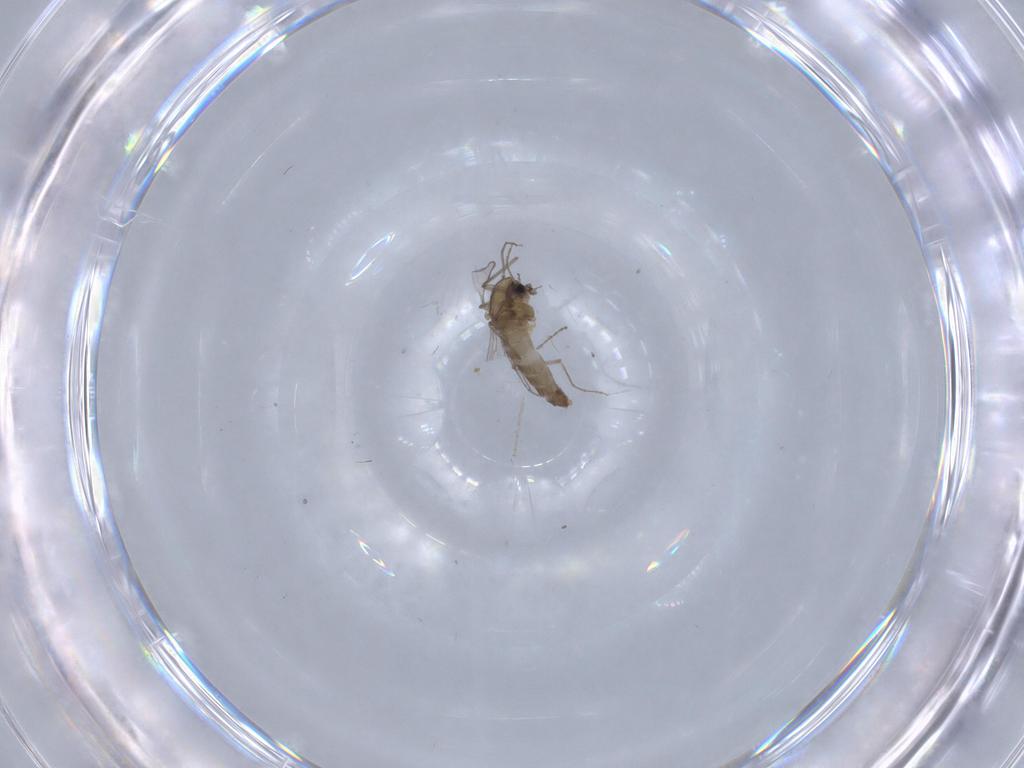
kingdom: Animalia
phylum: Arthropoda
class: Insecta
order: Diptera
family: Chironomidae
